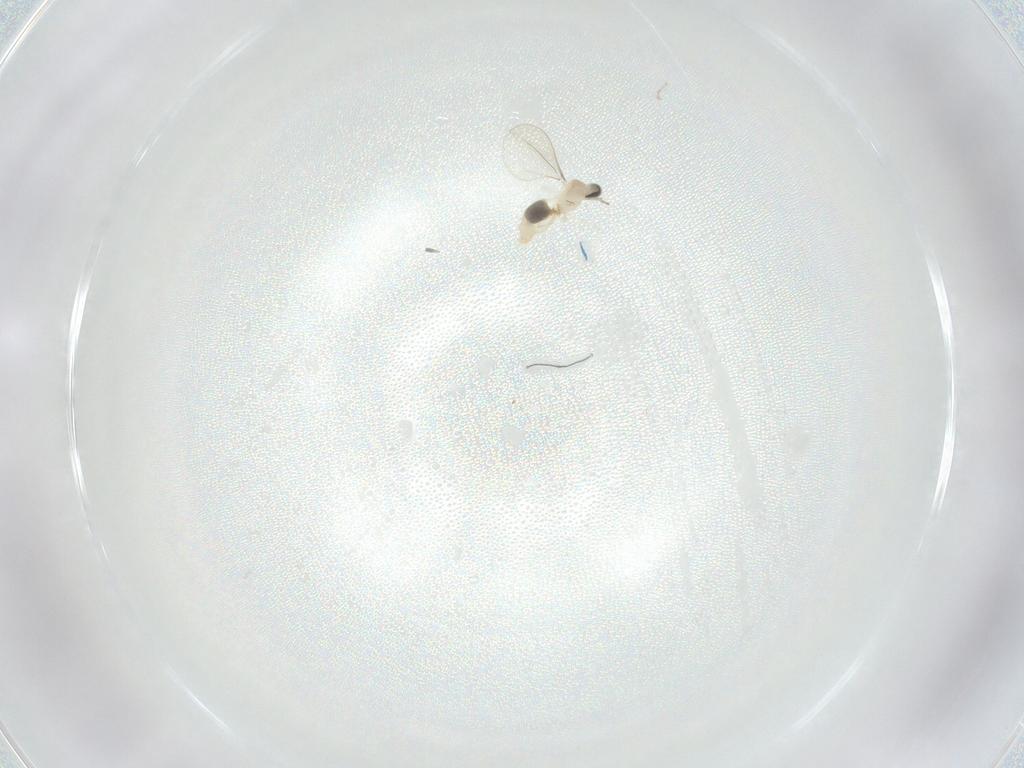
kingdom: Animalia
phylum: Arthropoda
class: Insecta
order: Diptera
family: Cecidomyiidae
